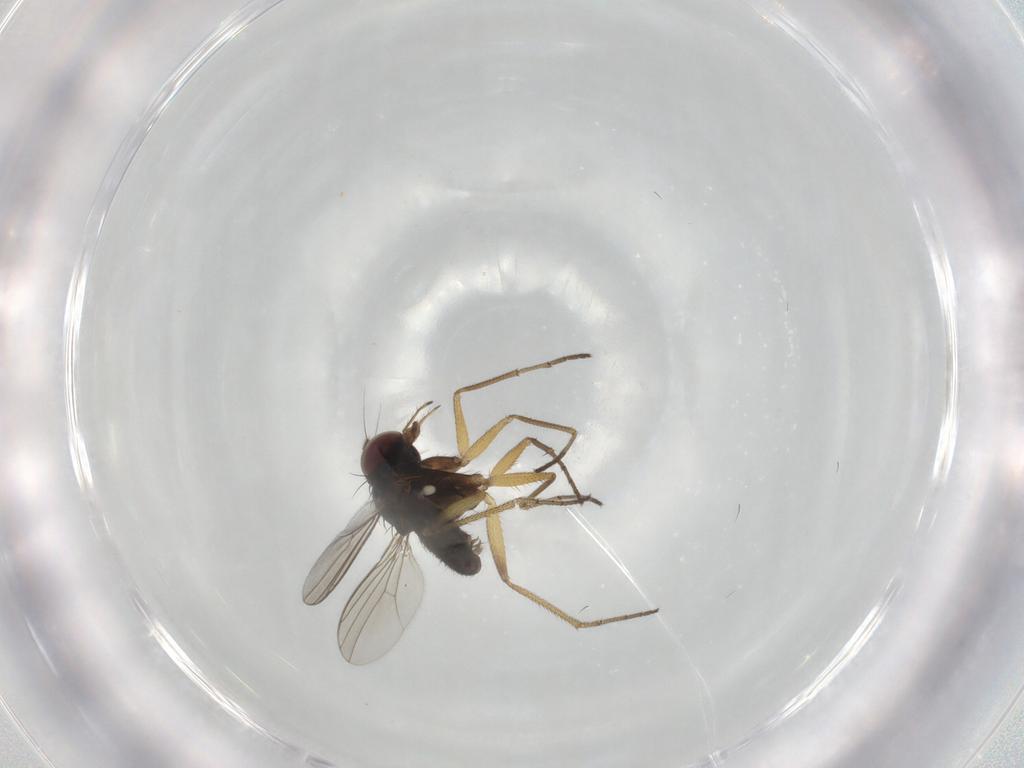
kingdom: Animalia
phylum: Arthropoda
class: Insecta
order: Diptera
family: Dolichopodidae
